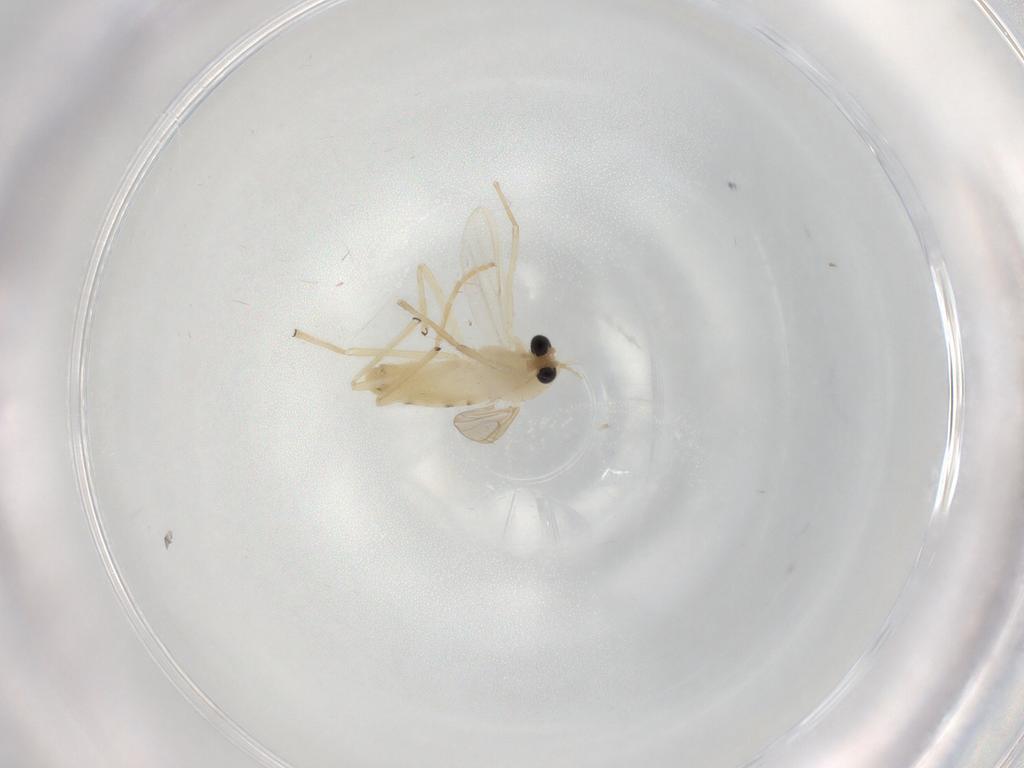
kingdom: Animalia
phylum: Arthropoda
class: Insecta
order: Diptera
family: Chironomidae
